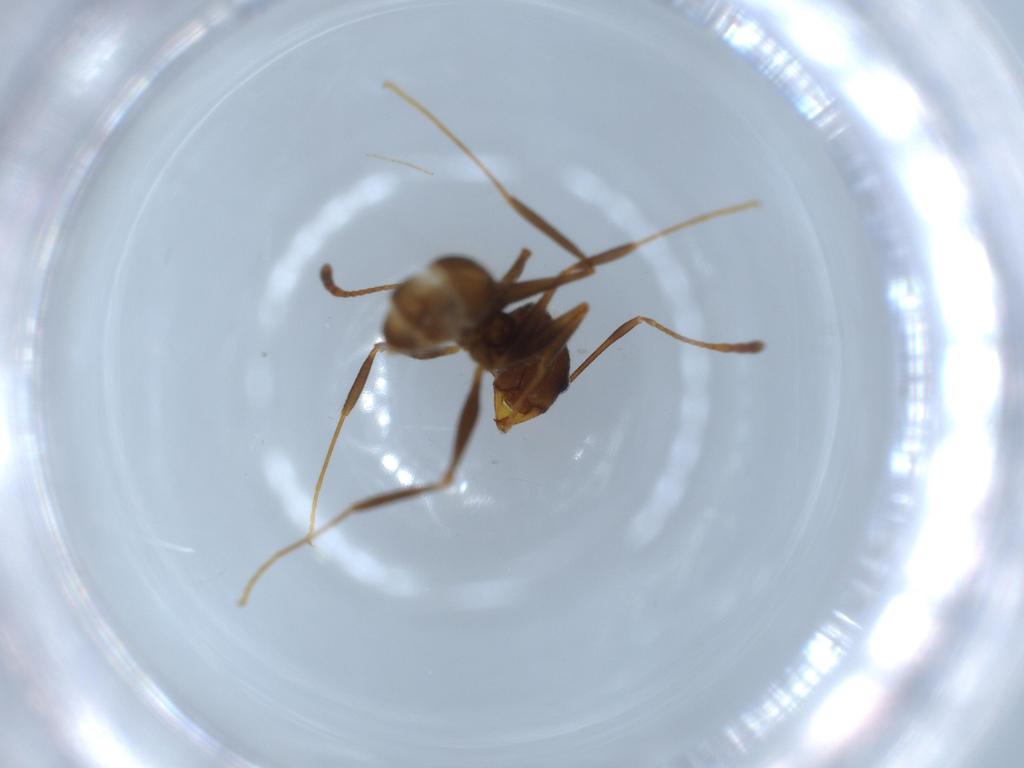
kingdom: Animalia
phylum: Arthropoda
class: Insecta
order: Hymenoptera
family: Formicidae
